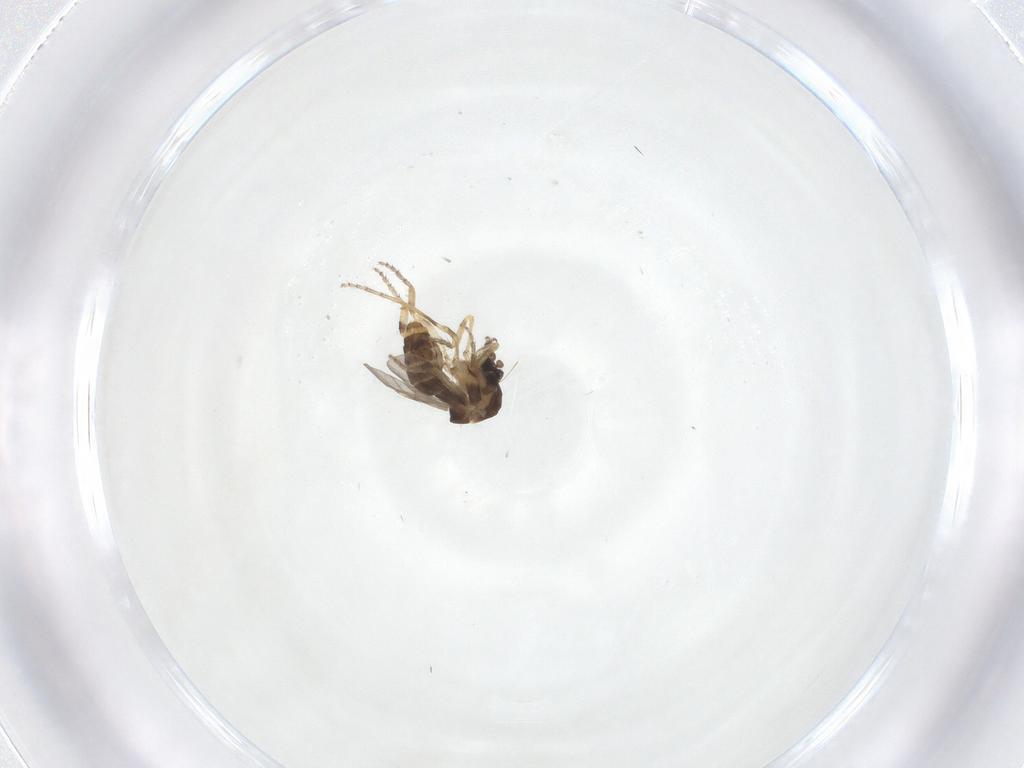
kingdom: Animalia
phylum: Arthropoda
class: Insecta
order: Diptera
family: Ceratopogonidae
